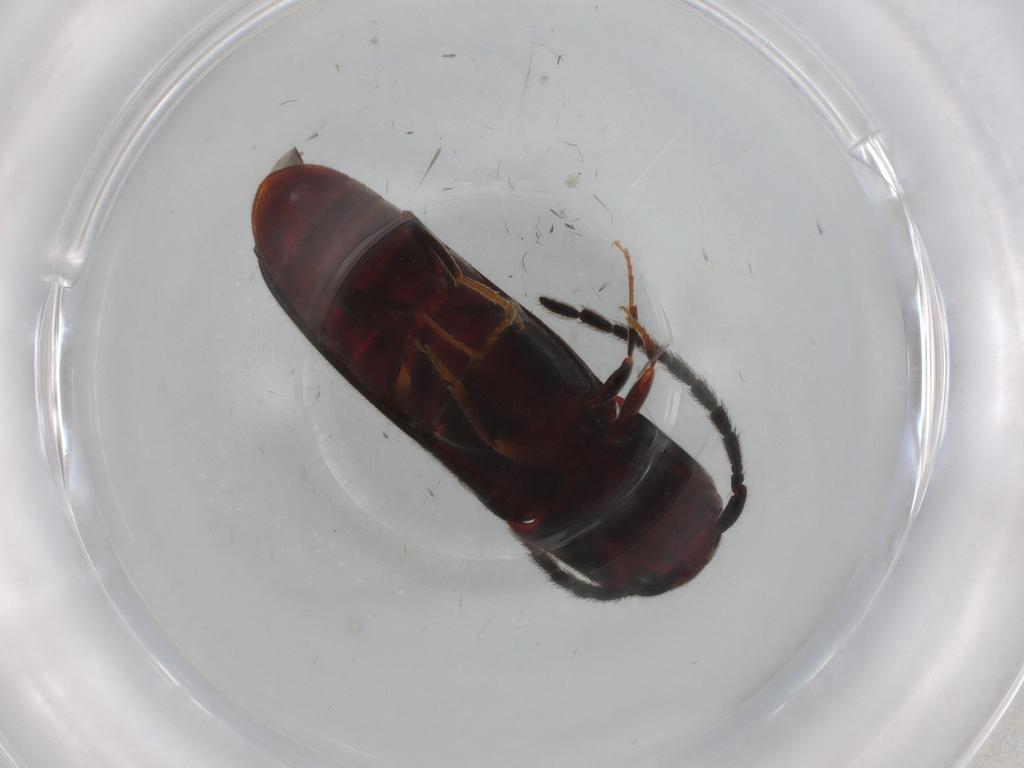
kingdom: Animalia
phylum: Arthropoda
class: Insecta
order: Coleoptera
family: Eucnemidae
